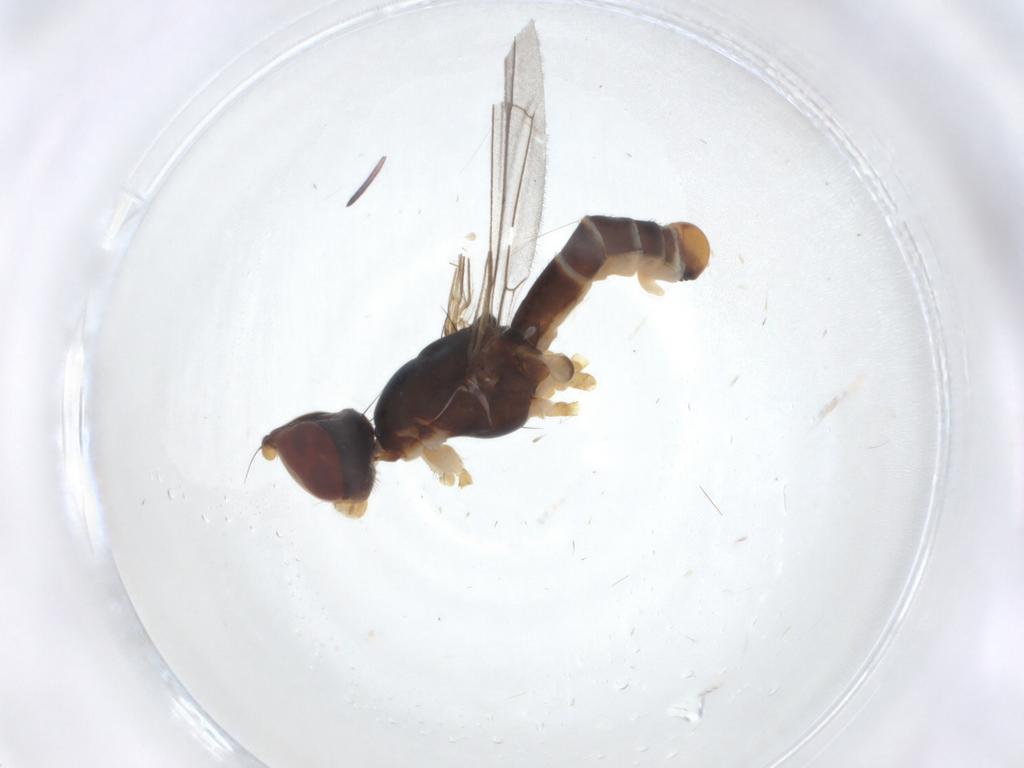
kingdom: Animalia
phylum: Arthropoda
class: Insecta
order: Diptera
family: Micropezidae
